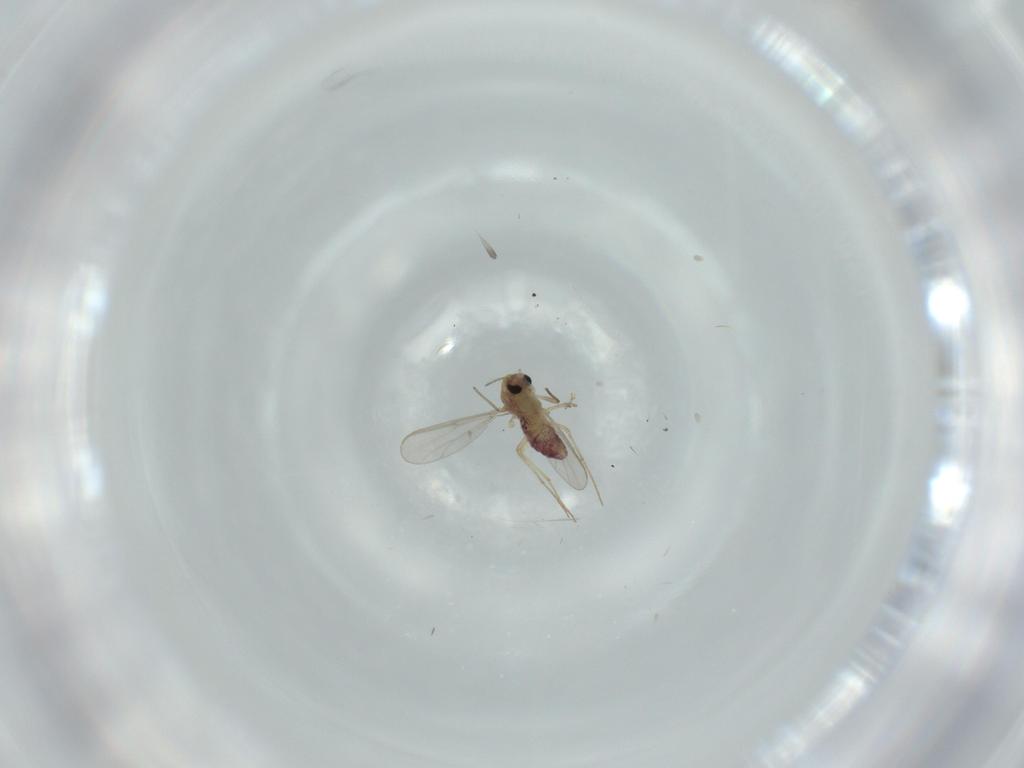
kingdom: Animalia
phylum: Arthropoda
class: Insecta
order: Diptera
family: Chironomidae
